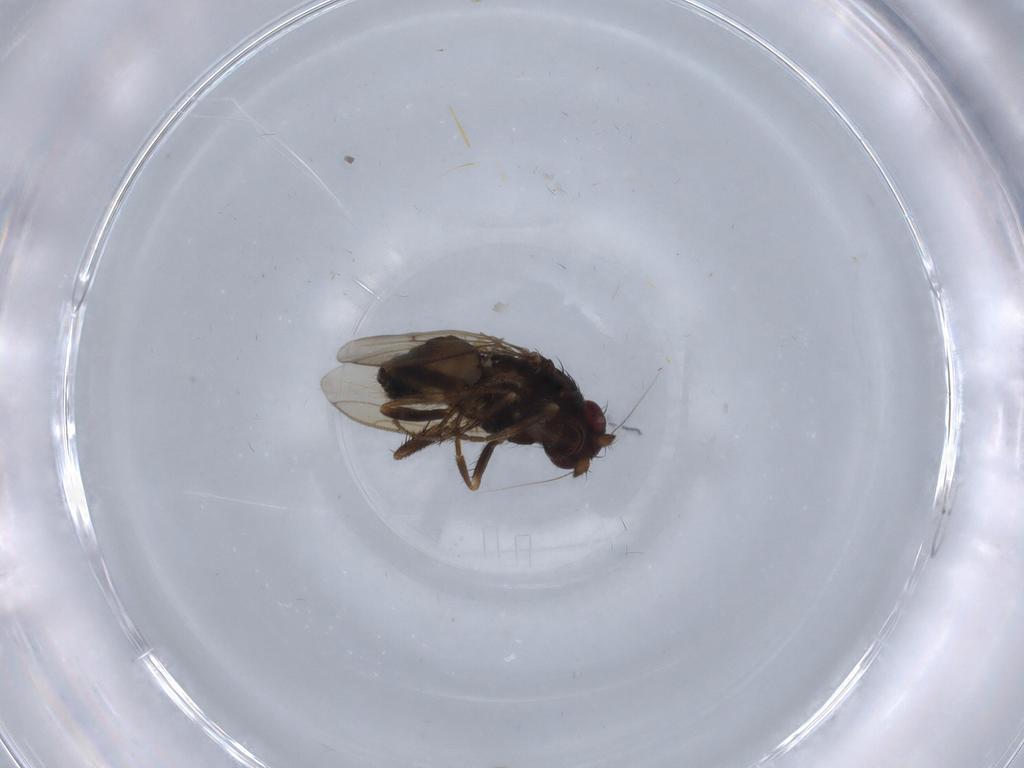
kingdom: Animalia
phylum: Arthropoda
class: Insecta
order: Diptera
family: Sphaeroceridae
